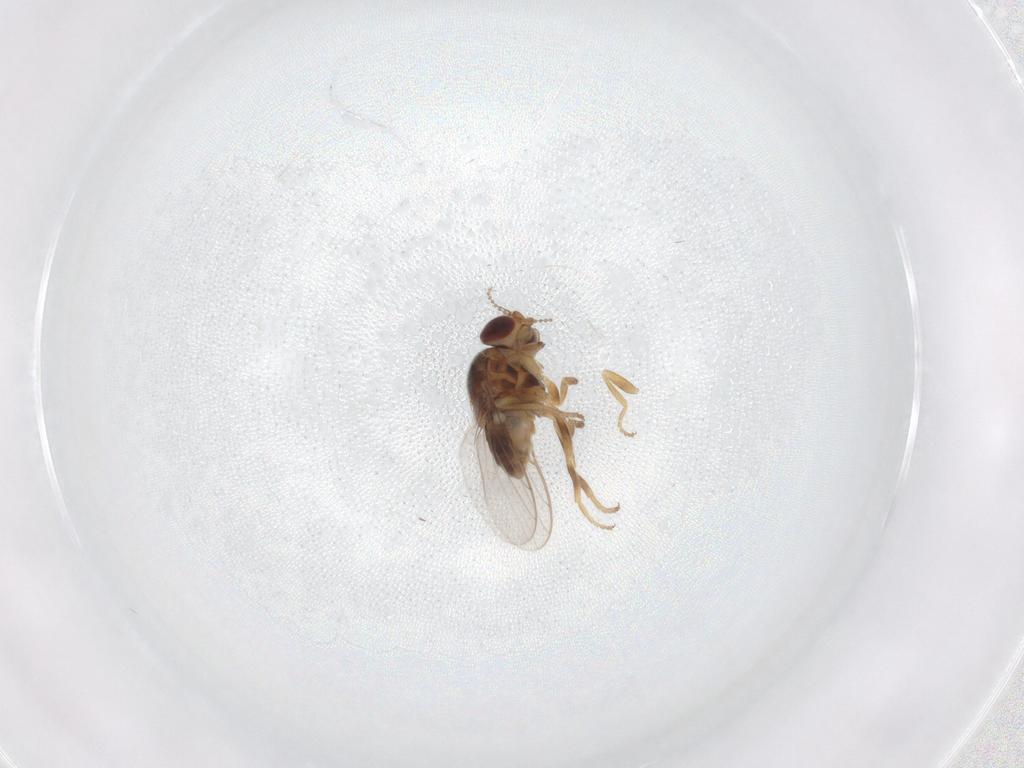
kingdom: Animalia
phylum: Arthropoda
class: Insecta
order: Diptera
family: Chloropidae
